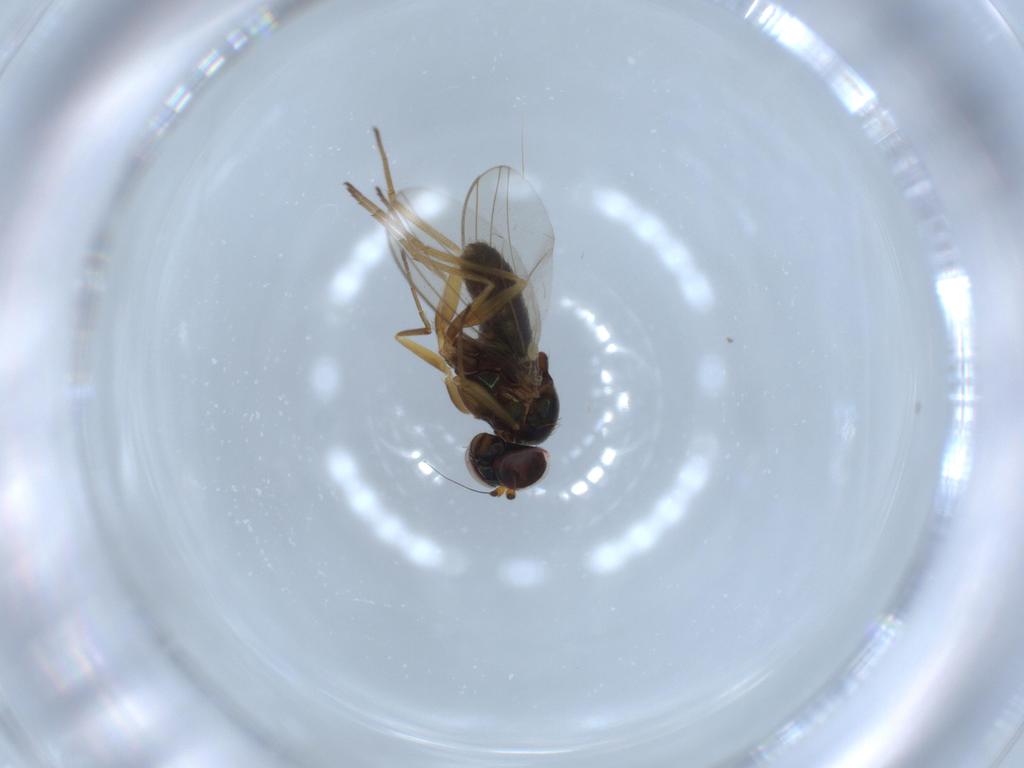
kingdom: Animalia
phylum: Arthropoda
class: Insecta
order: Diptera
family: Dolichopodidae
